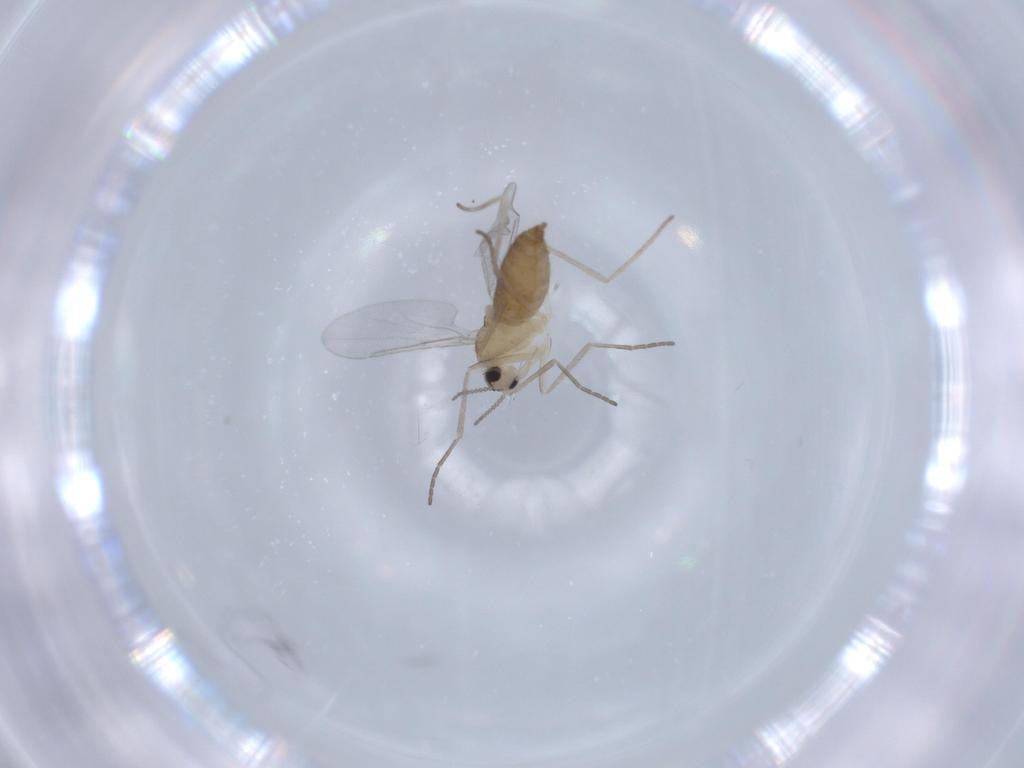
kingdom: Animalia
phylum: Arthropoda
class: Insecta
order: Diptera
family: Cecidomyiidae
